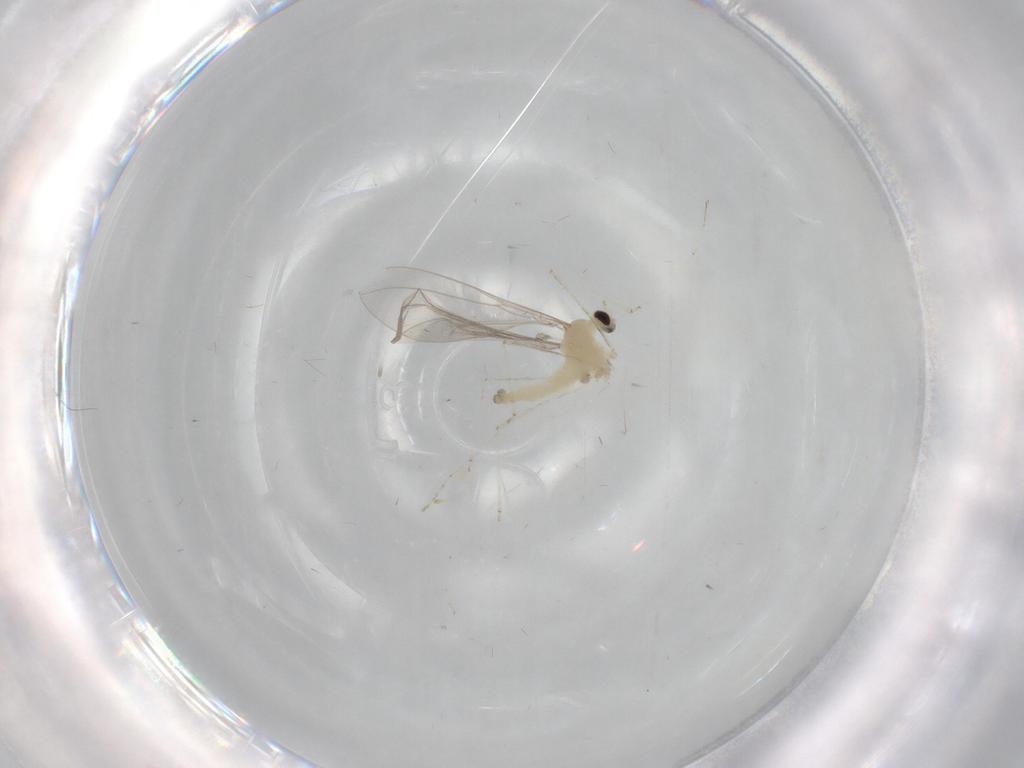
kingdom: Animalia
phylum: Arthropoda
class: Insecta
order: Diptera
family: Cecidomyiidae
